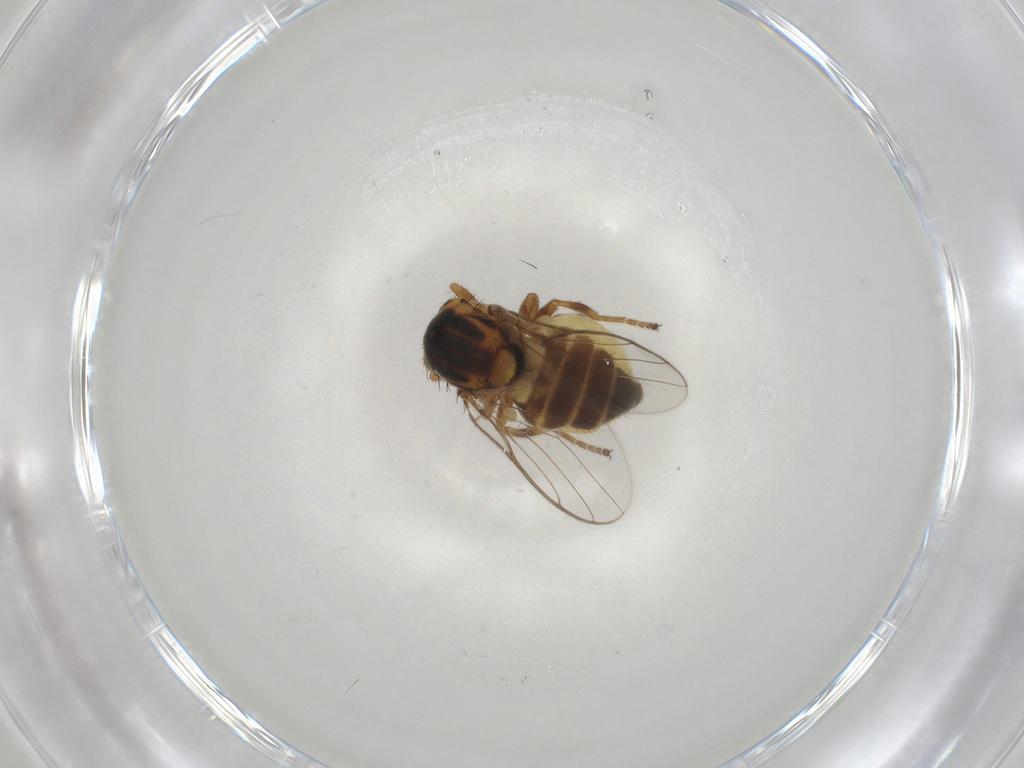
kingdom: Animalia
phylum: Arthropoda
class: Insecta
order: Diptera
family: Chloropidae
